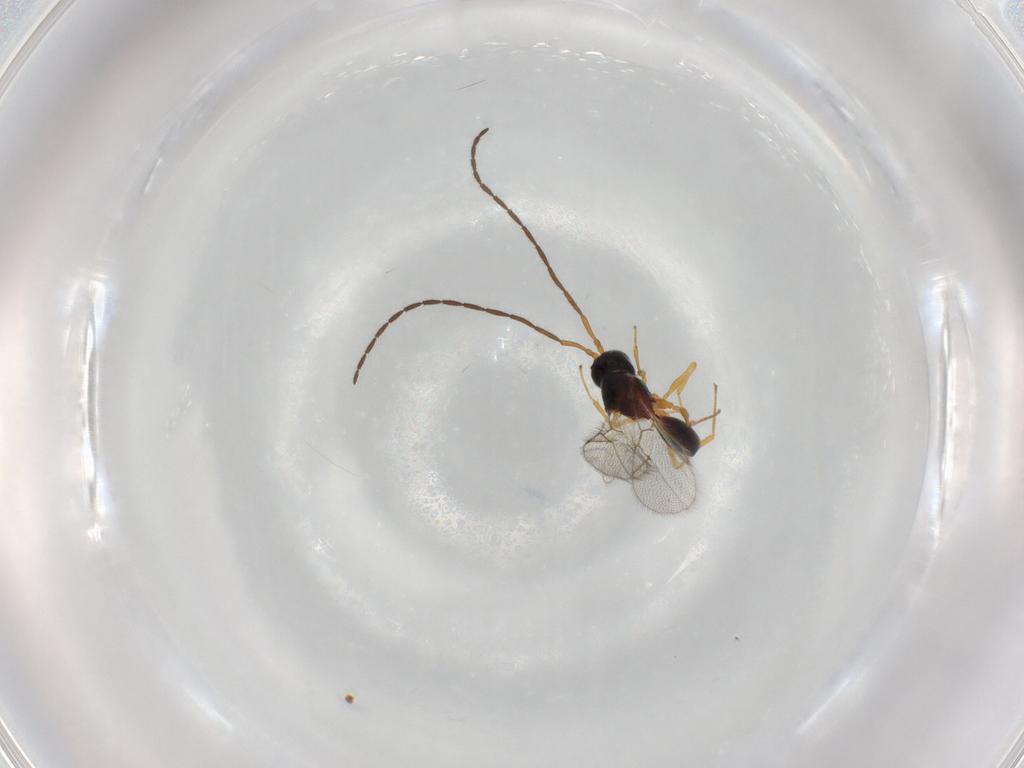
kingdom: Animalia
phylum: Arthropoda
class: Insecta
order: Hymenoptera
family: Figitidae
